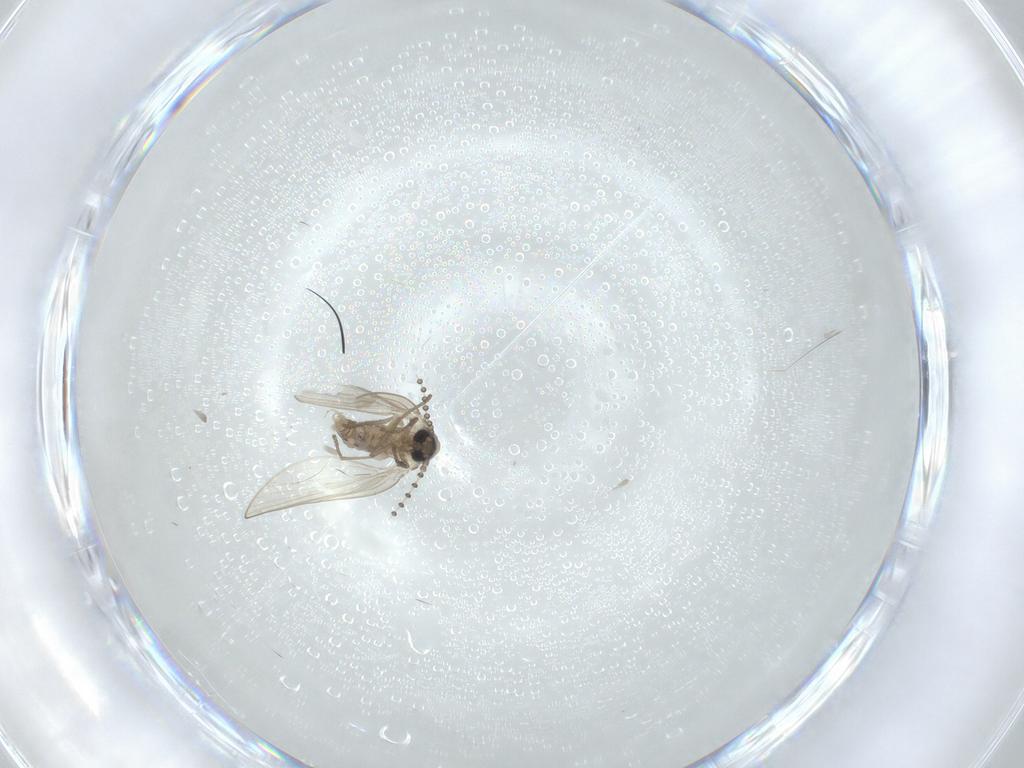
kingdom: Animalia
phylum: Arthropoda
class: Insecta
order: Diptera
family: Psychodidae
